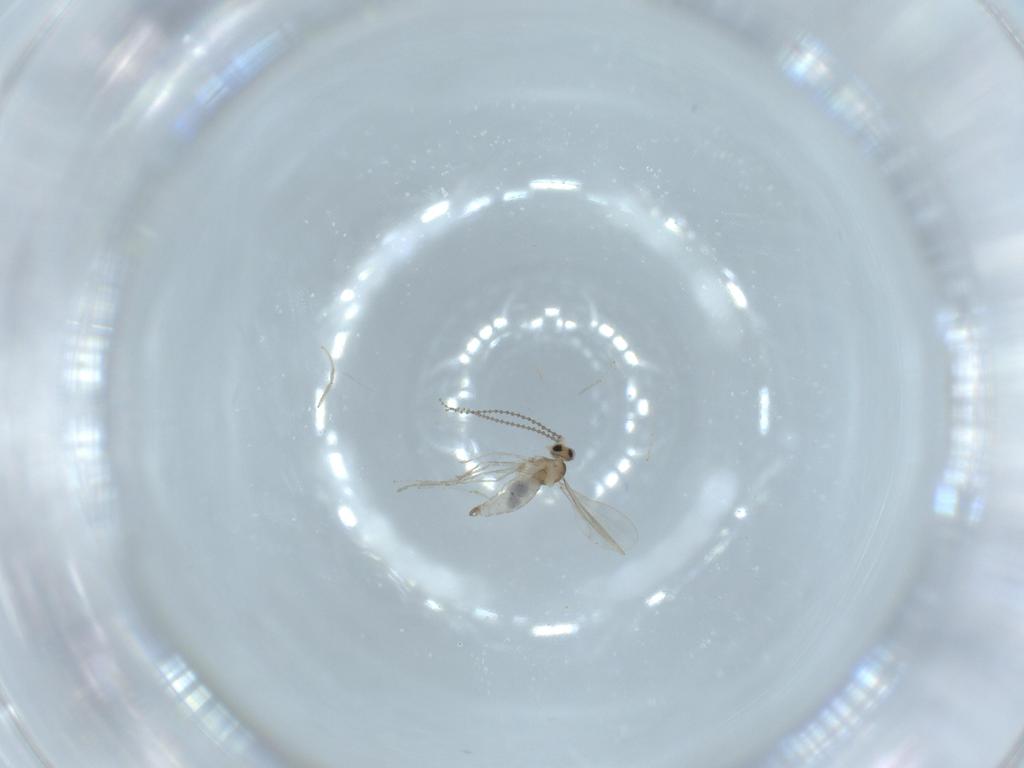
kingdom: Animalia
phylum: Arthropoda
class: Insecta
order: Diptera
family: Cecidomyiidae
